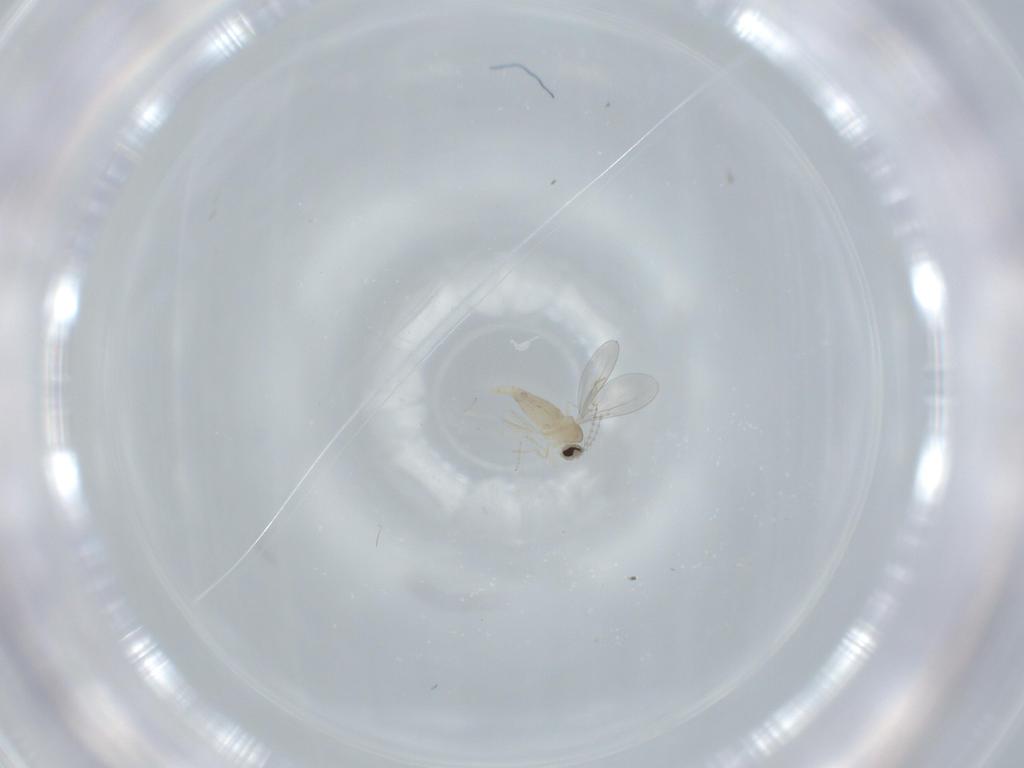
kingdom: Animalia
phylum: Arthropoda
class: Insecta
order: Diptera
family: Cecidomyiidae
